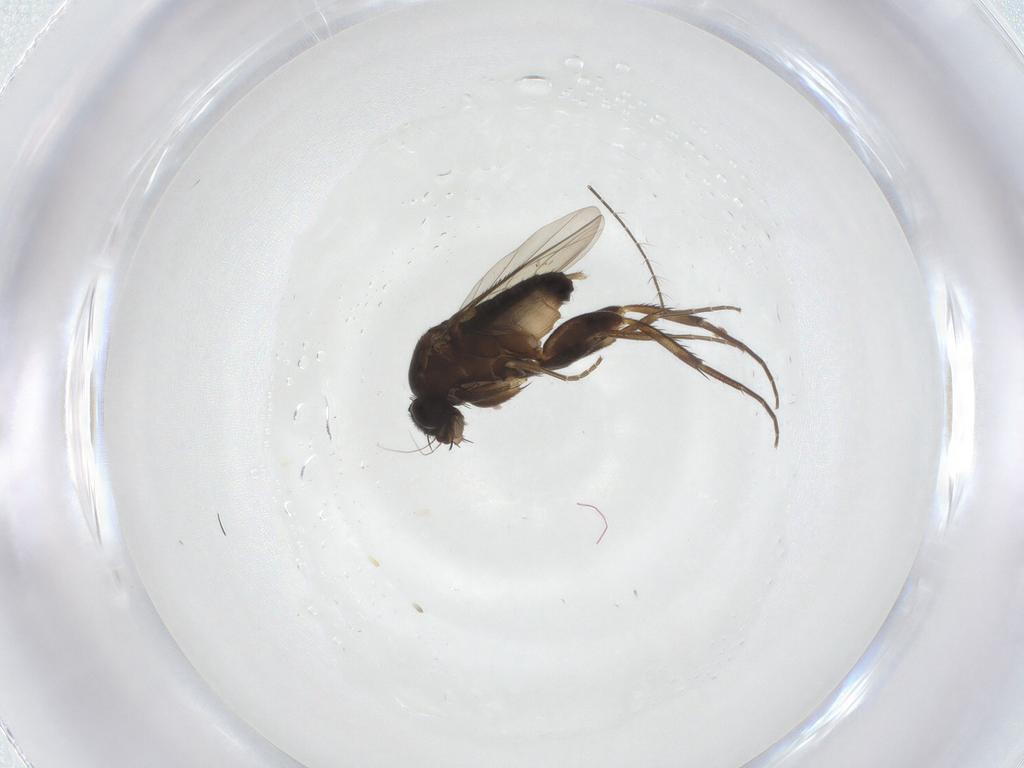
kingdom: Animalia
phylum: Arthropoda
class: Insecta
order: Diptera
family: Phoridae
